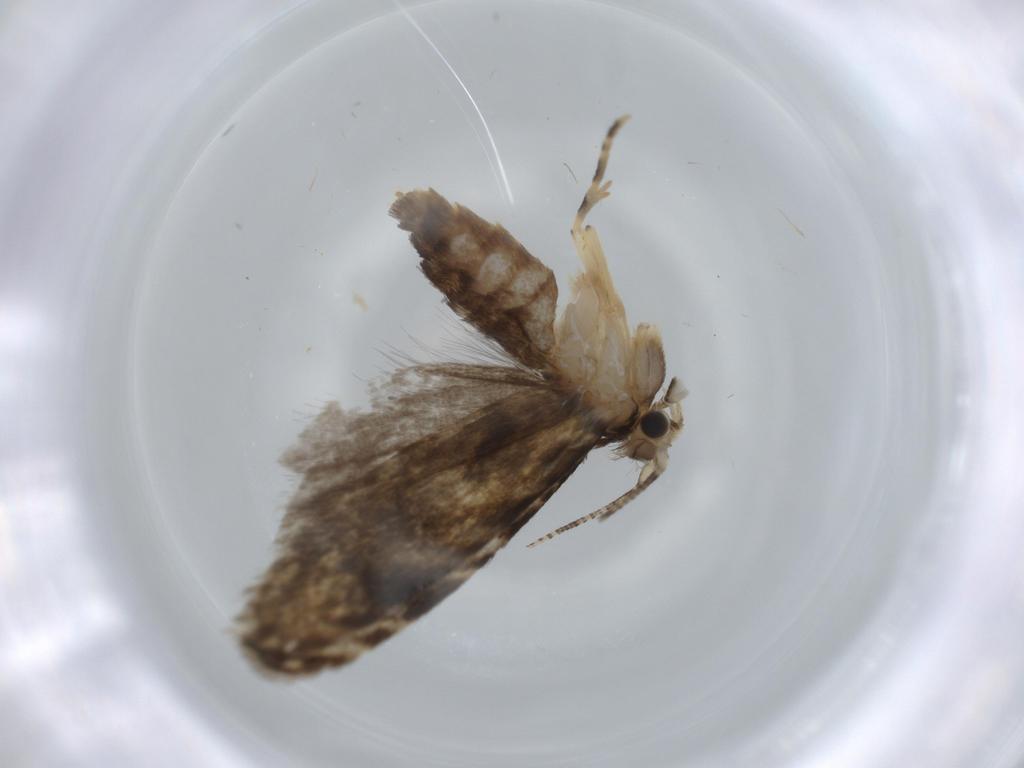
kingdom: Animalia
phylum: Arthropoda
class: Insecta
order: Lepidoptera
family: Tineidae
